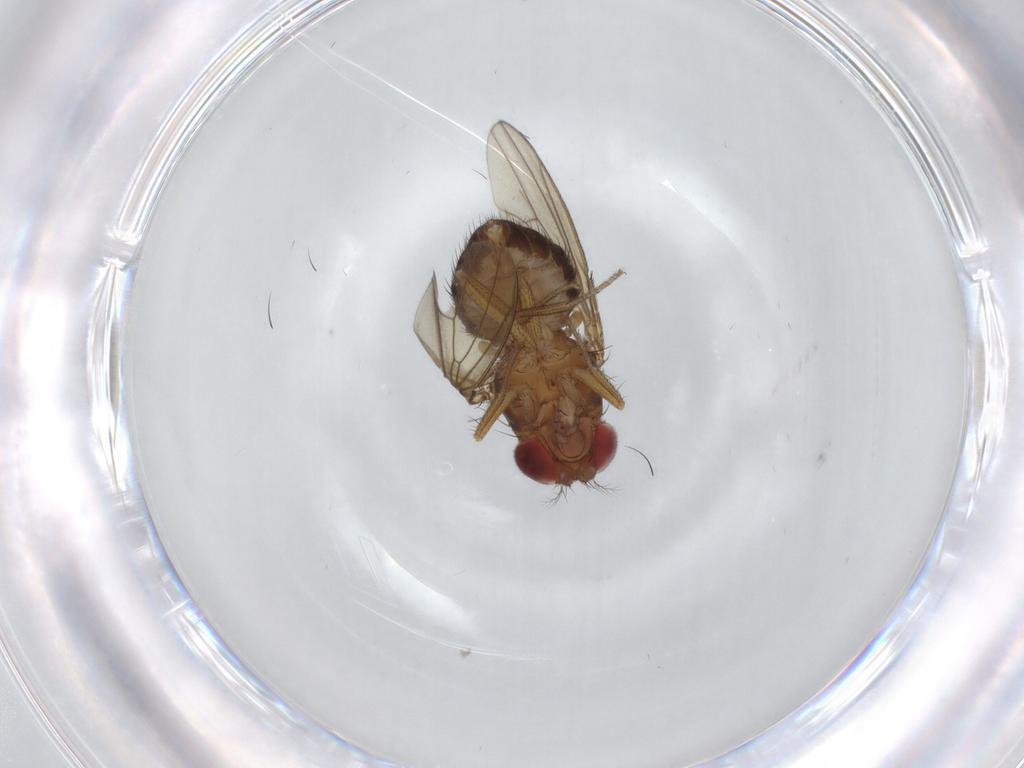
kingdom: Animalia
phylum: Arthropoda
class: Insecta
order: Diptera
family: Drosophilidae
